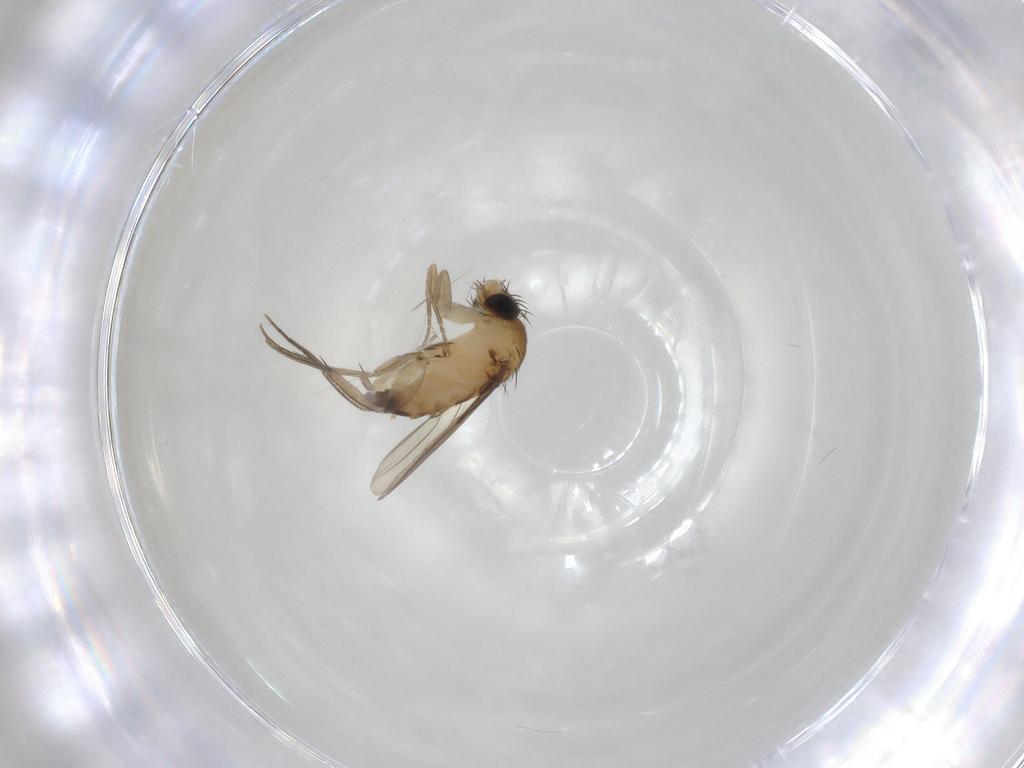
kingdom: Animalia
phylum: Arthropoda
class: Insecta
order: Diptera
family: Phoridae
